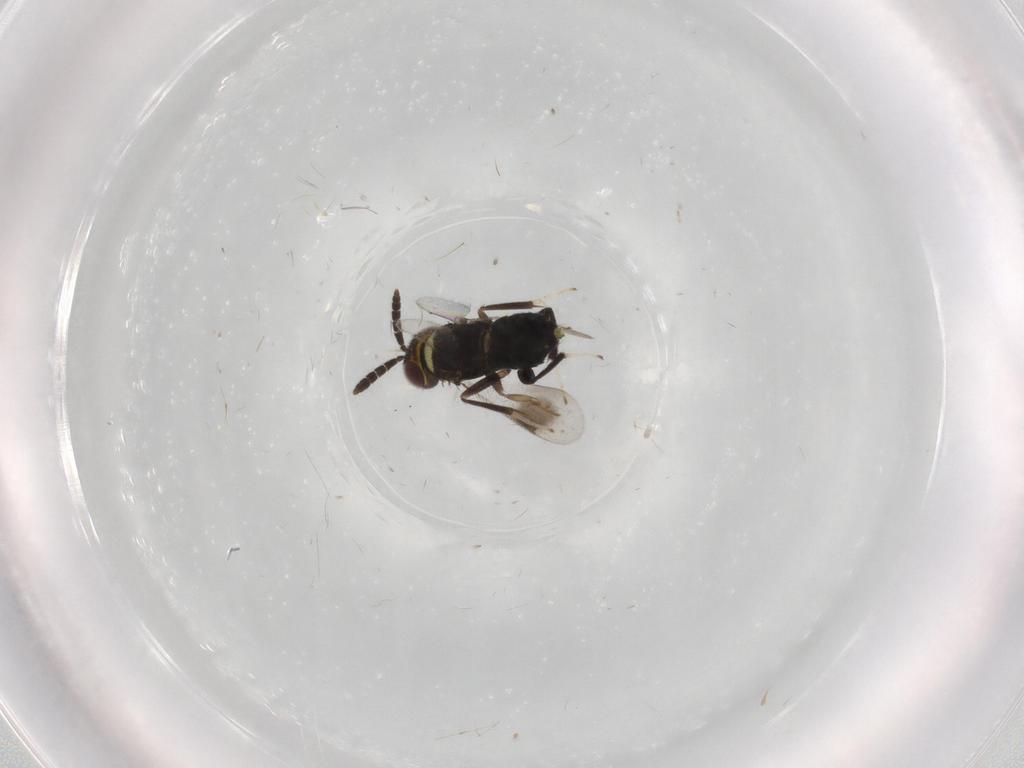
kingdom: Animalia
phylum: Arthropoda
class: Insecta
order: Hymenoptera
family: Aphelinidae
